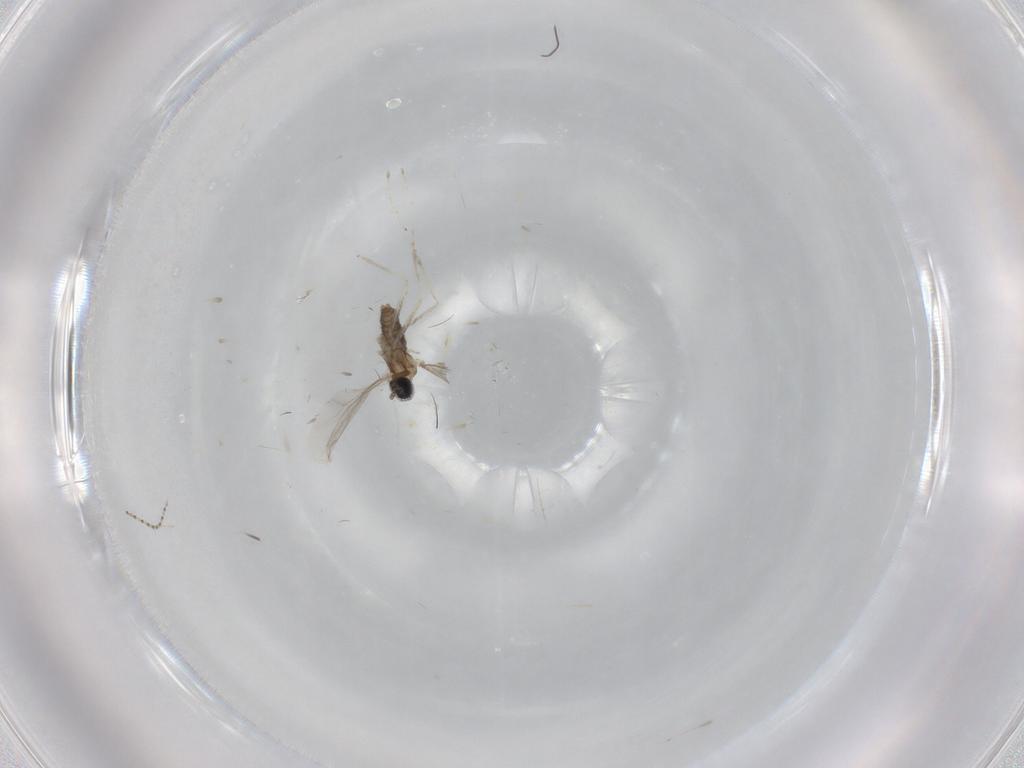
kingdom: Animalia
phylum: Arthropoda
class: Insecta
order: Diptera
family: Cecidomyiidae
